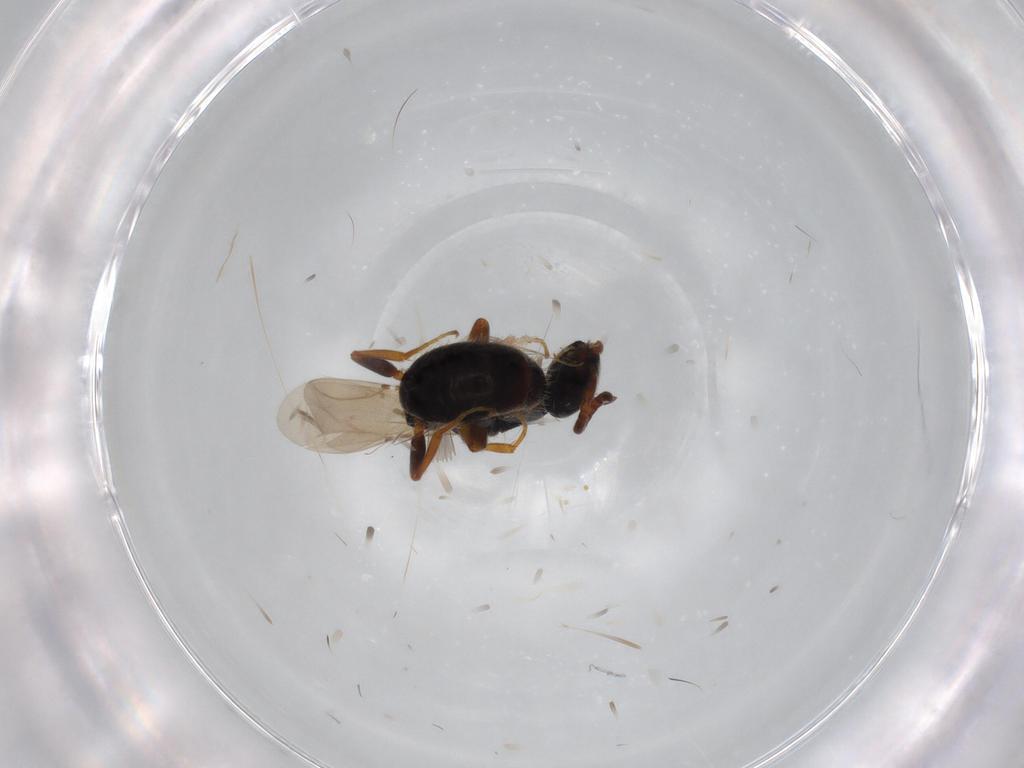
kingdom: Animalia
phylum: Arthropoda
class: Insecta
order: Hymenoptera
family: Bethylidae
